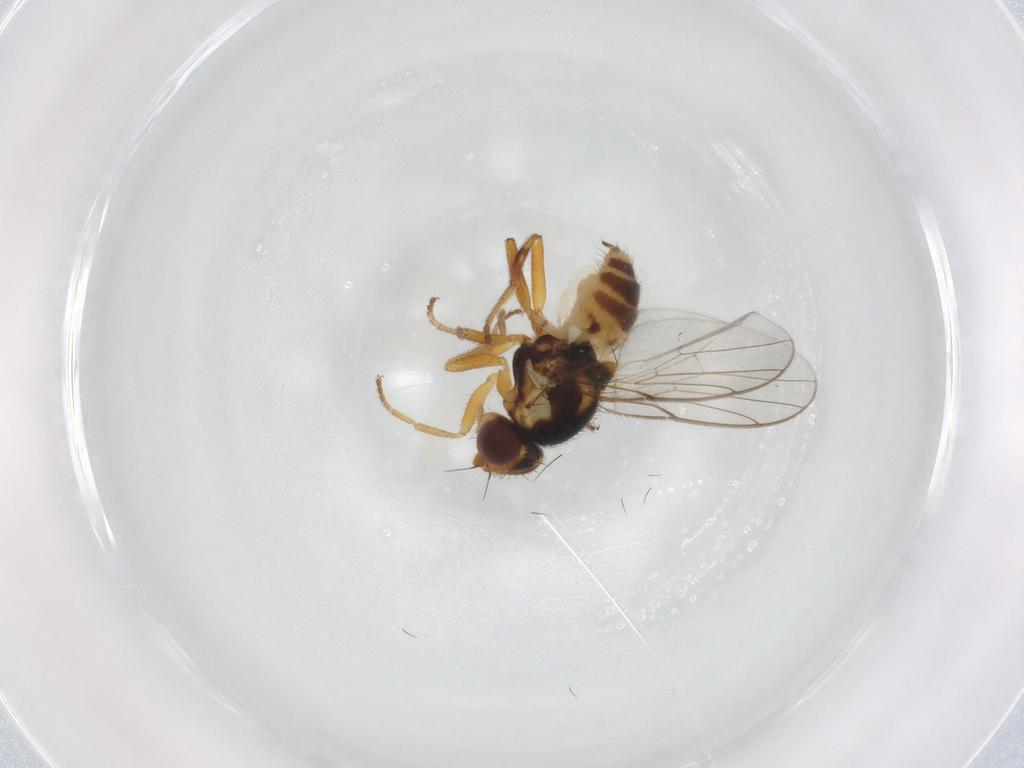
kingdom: Animalia
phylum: Arthropoda
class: Insecta
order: Diptera
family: Chloropidae
